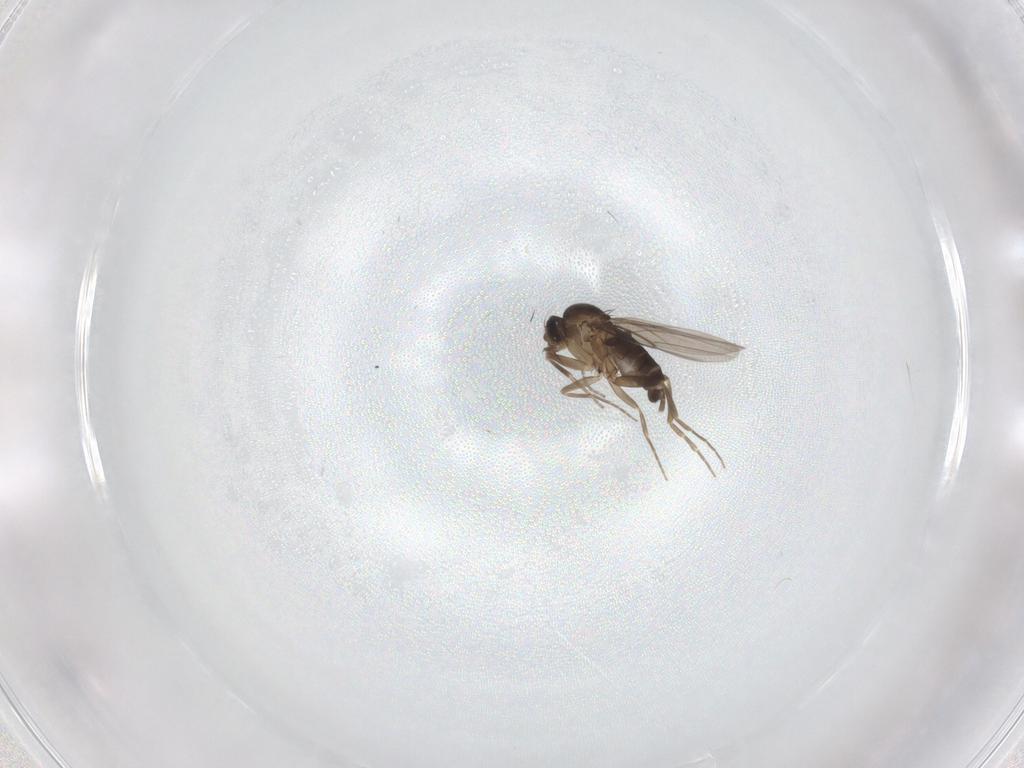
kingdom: Animalia
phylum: Arthropoda
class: Insecta
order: Diptera
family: Phoridae
